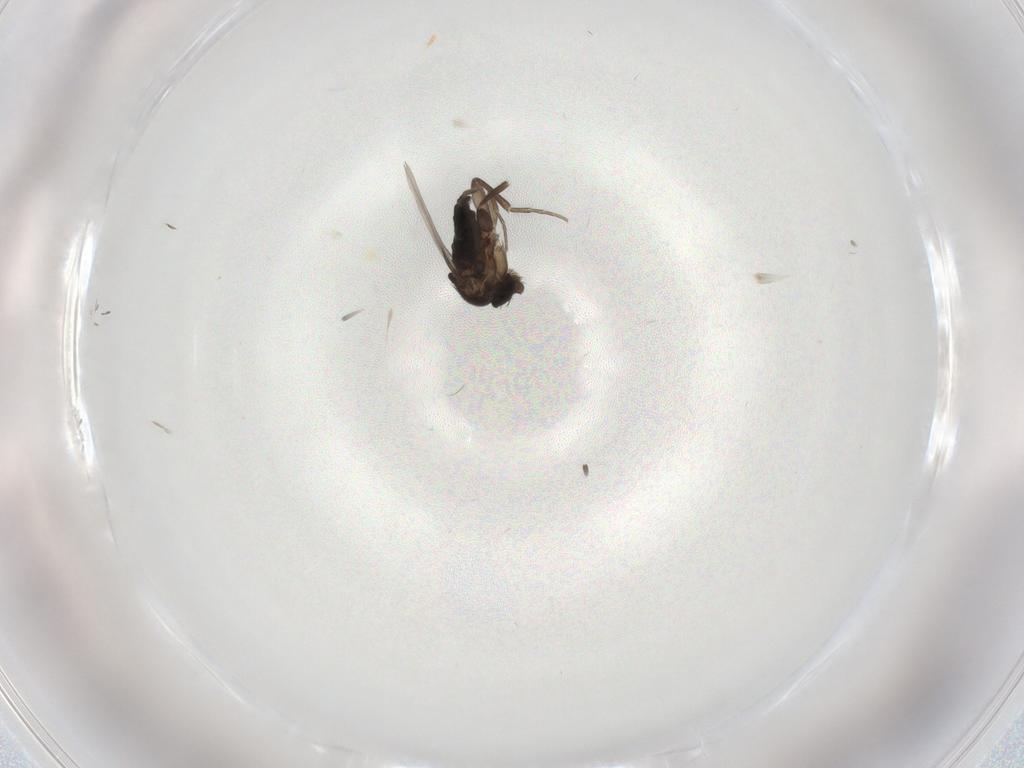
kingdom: Animalia
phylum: Arthropoda
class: Insecta
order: Diptera
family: Phoridae
